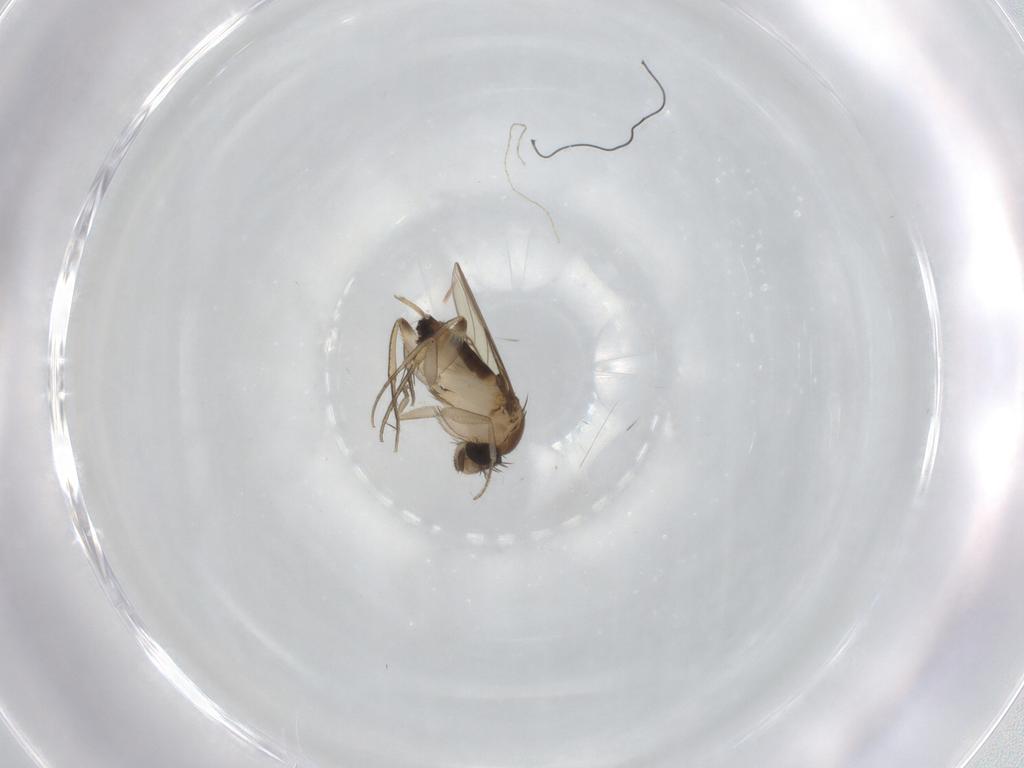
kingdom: Animalia
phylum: Arthropoda
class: Insecta
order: Diptera
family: Phoridae
